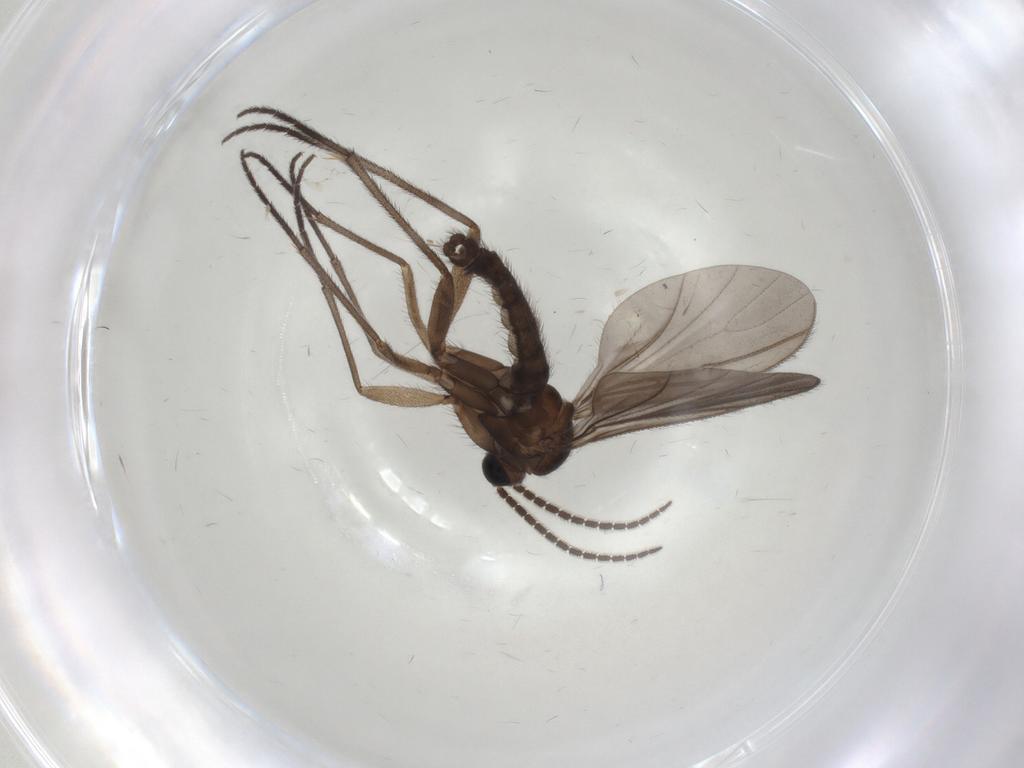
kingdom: Animalia
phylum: Arthropoda
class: Insecta
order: Diptera
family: Sciaridae
